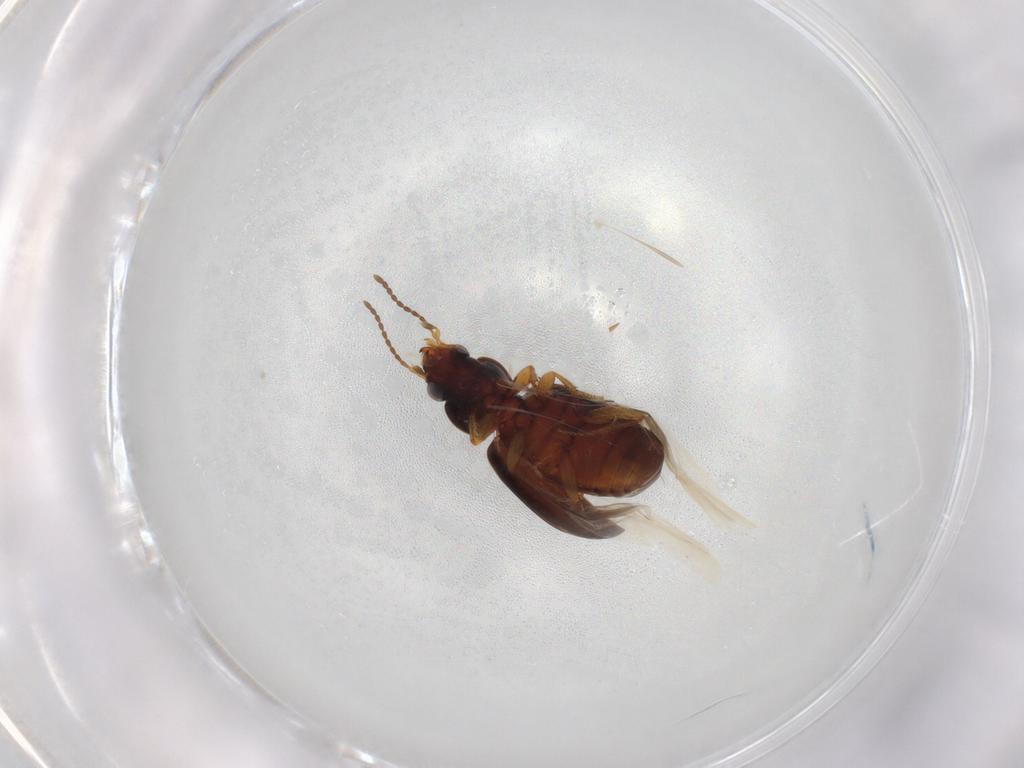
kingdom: Animalia
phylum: Arthropoda
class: Insecta
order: Coleoptera
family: Carabidae
